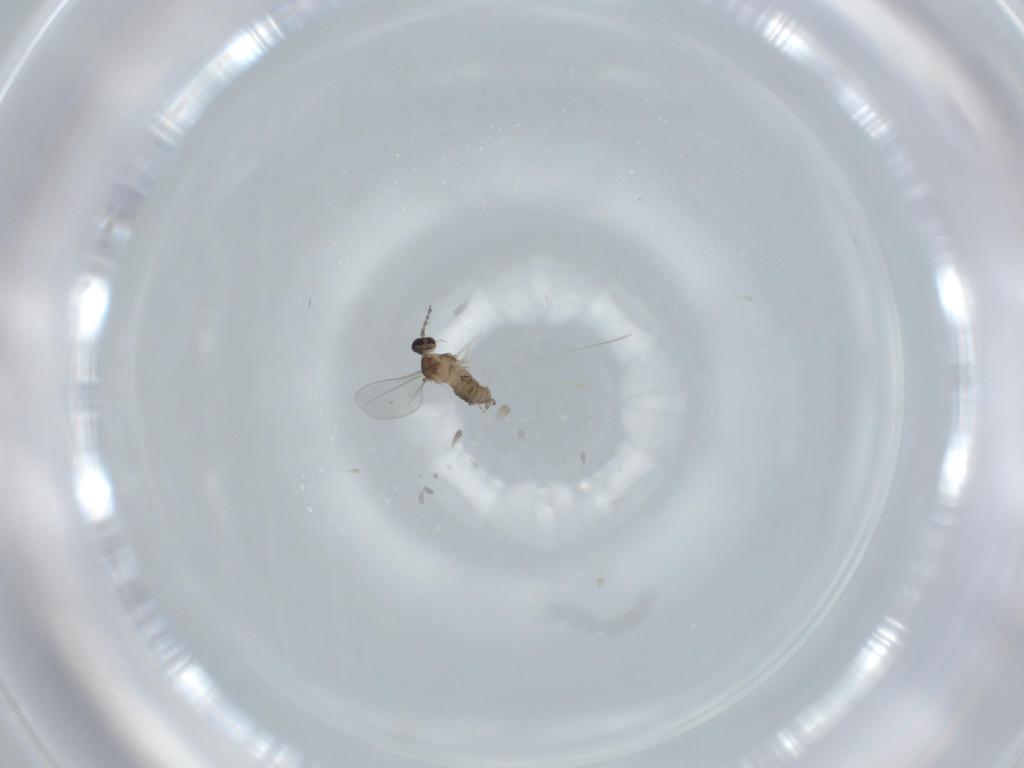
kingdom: Animalia
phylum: Arthropoda
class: Insecta
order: Diptera
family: Cecidomyiidae
